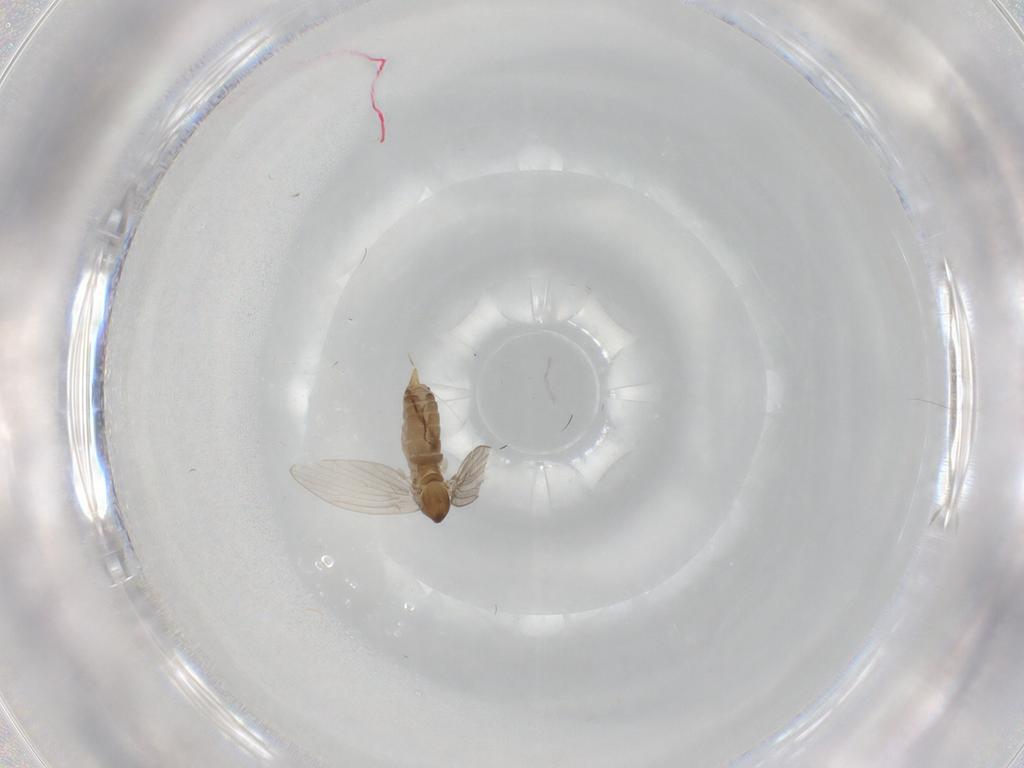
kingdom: Animalia
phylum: Arthropoda
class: Insecta
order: Diptera
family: Psychodidae
